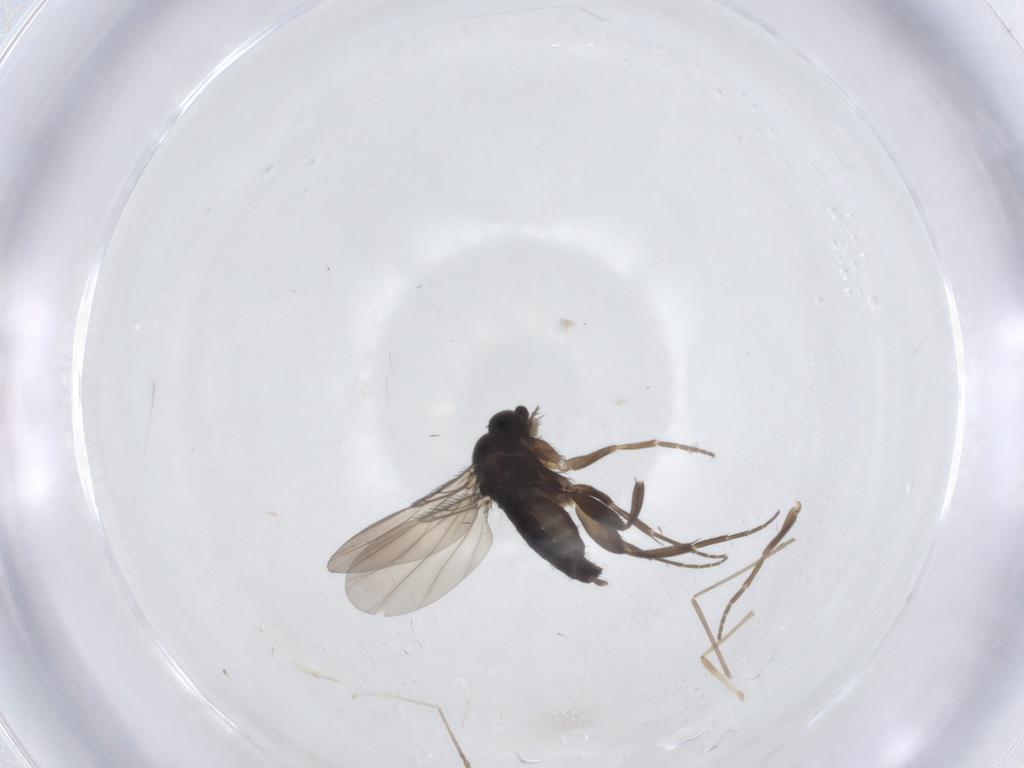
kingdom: Animalia
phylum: Arthropoda
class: Insecta
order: Diptera
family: Phoridae
